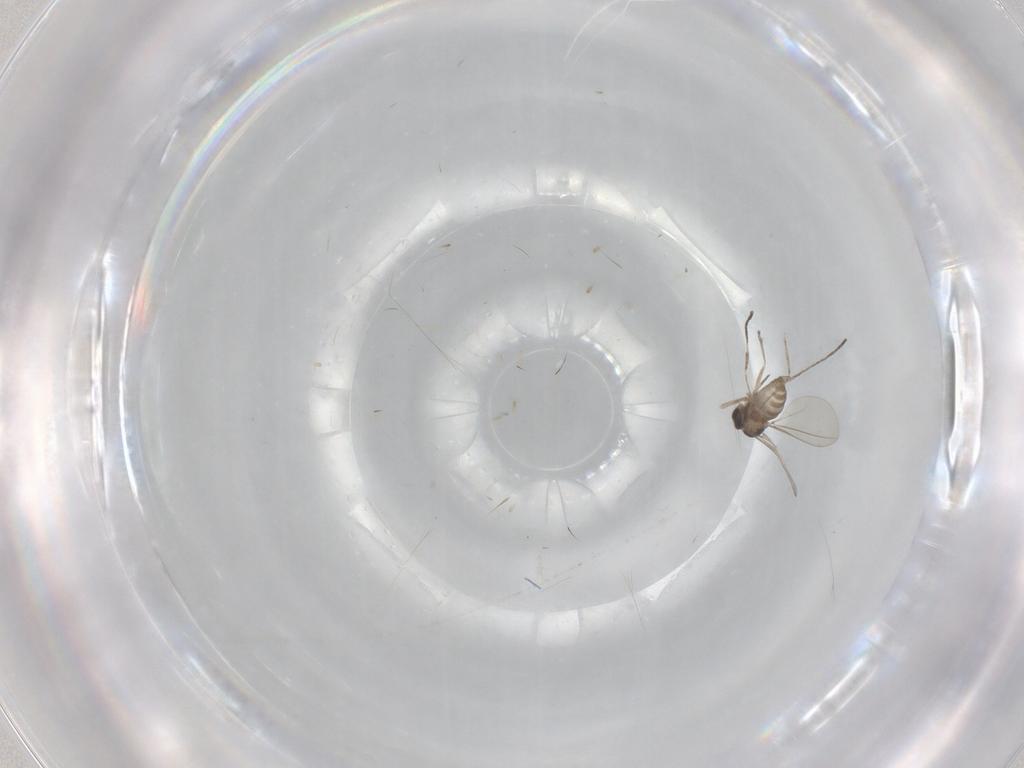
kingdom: Animalia
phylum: Arthropoda
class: Insecta
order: Diptera
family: Cecidomyiidae
